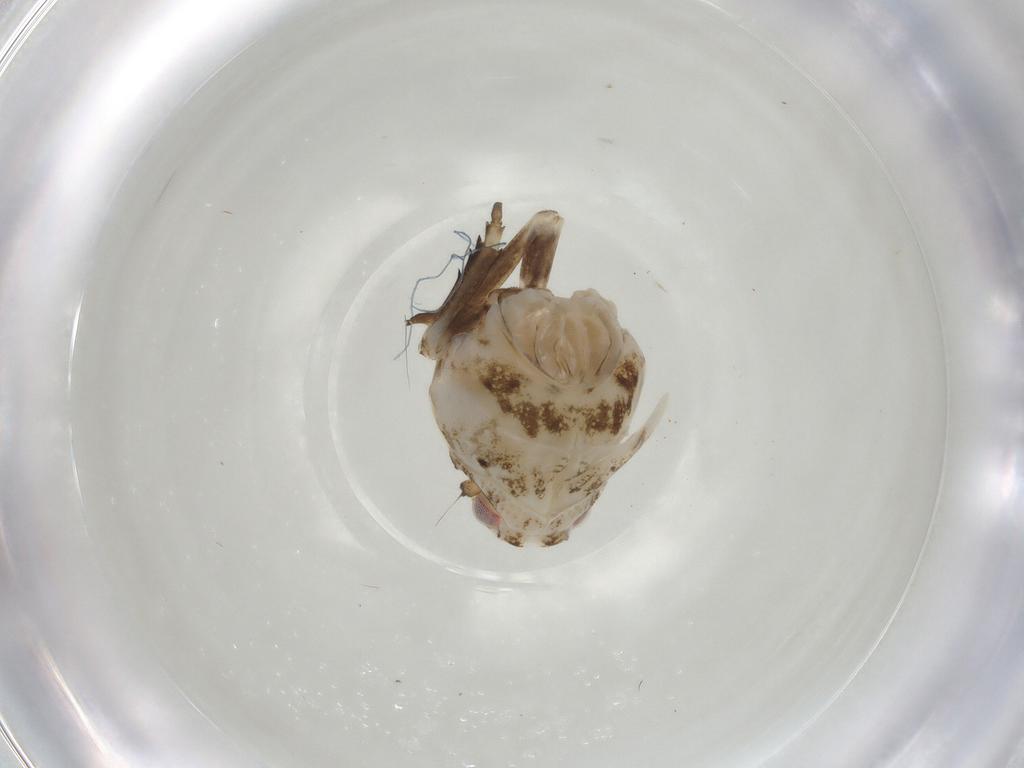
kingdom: Animalia
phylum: Arthropoda
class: Insecta
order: Hemiptera
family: Ricaniidae
